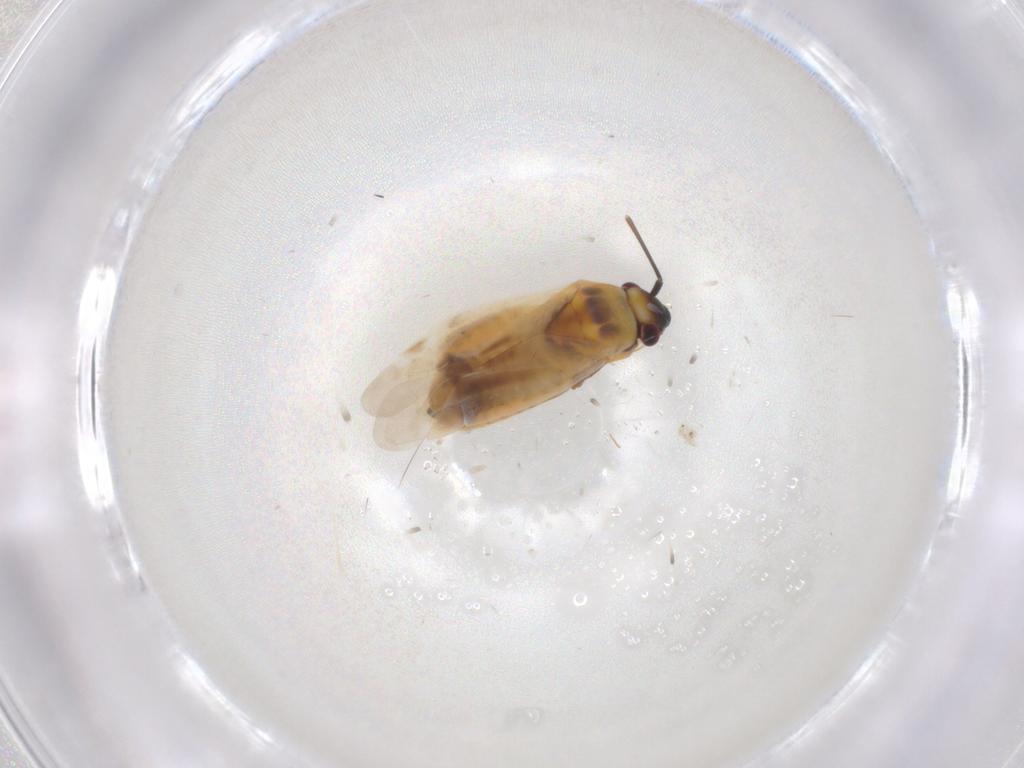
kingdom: Animalia
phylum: Arthropoda
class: Insecta
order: Hemiptera
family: Miridae
